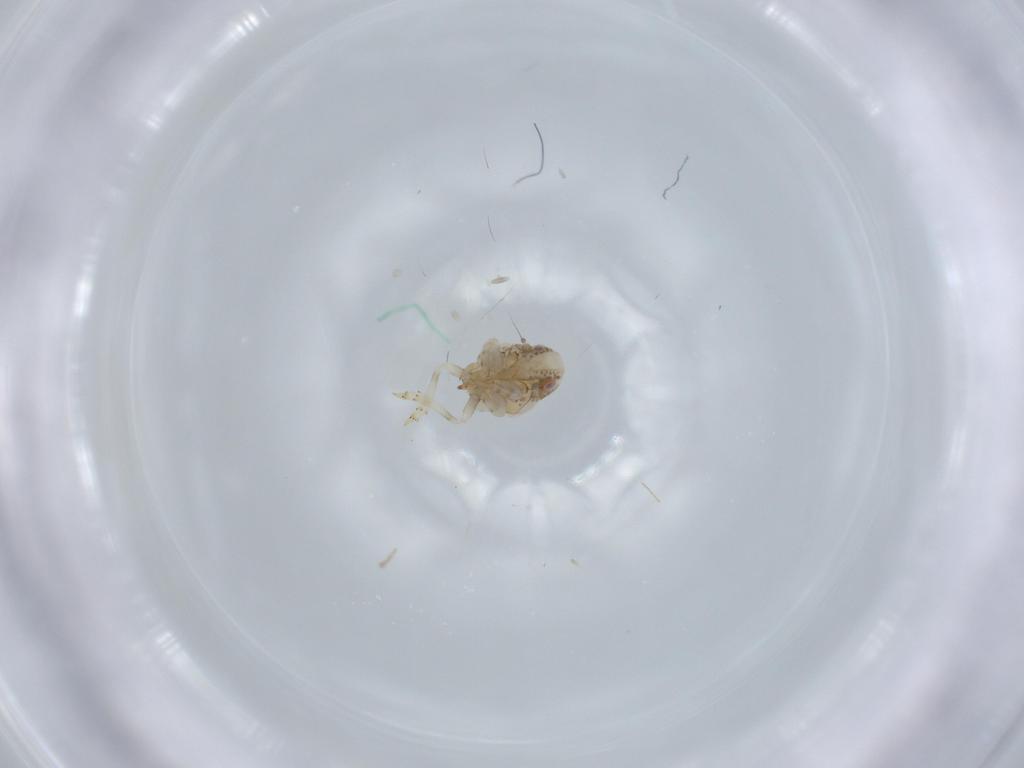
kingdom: Animalia
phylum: Arthropoda
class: Insecta
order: Hemiptera
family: Acanaloniidae
